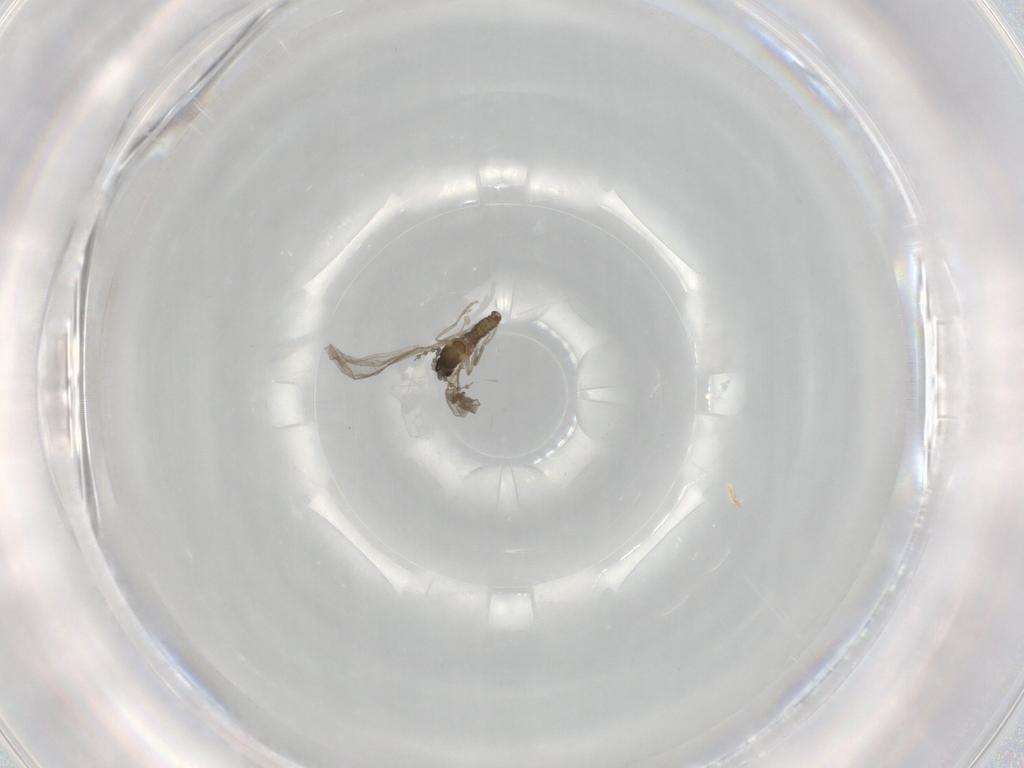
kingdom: Animalia
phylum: Arthropoda
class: Insecta
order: Diptera
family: Cecidomyiidae
